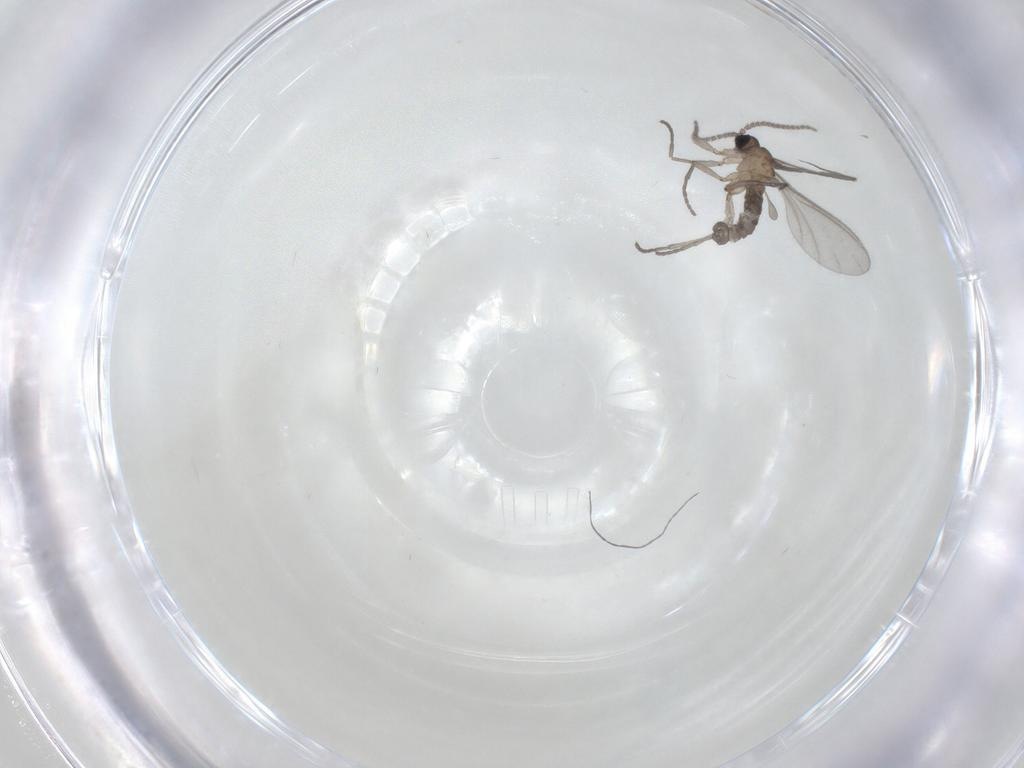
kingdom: Animalia
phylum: Arthropoda
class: Insecta
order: Diptera
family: Sciaridae
